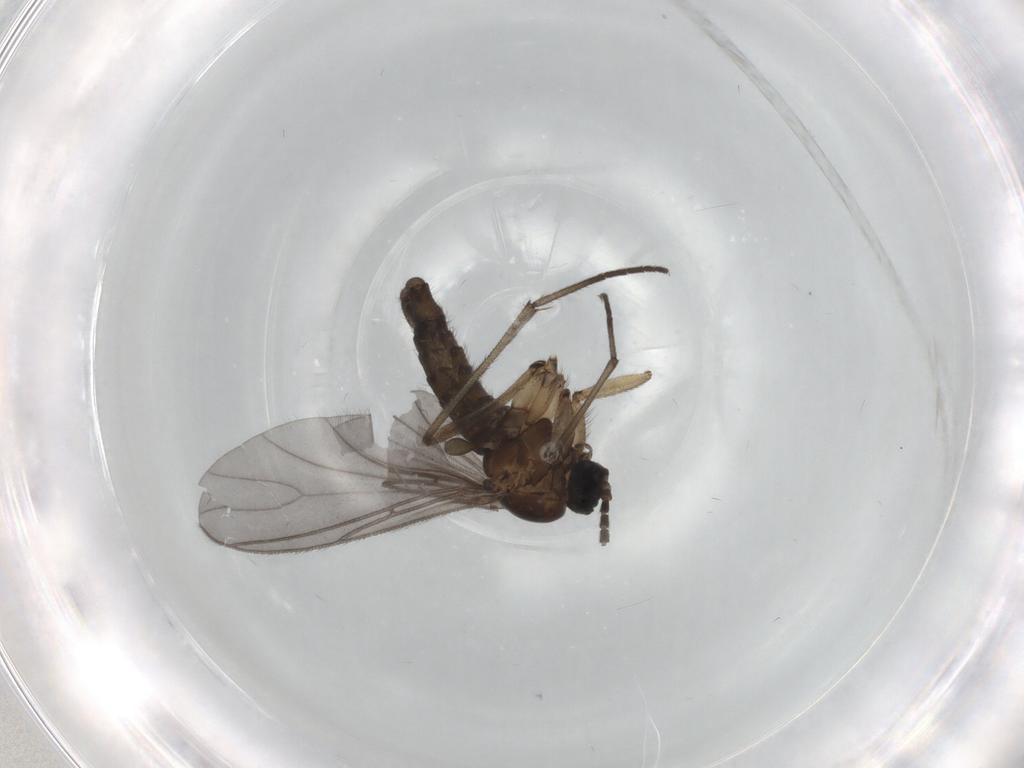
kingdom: Animalia
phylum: Arthropoda
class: Insecta
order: Diptera
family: Sciaridae
